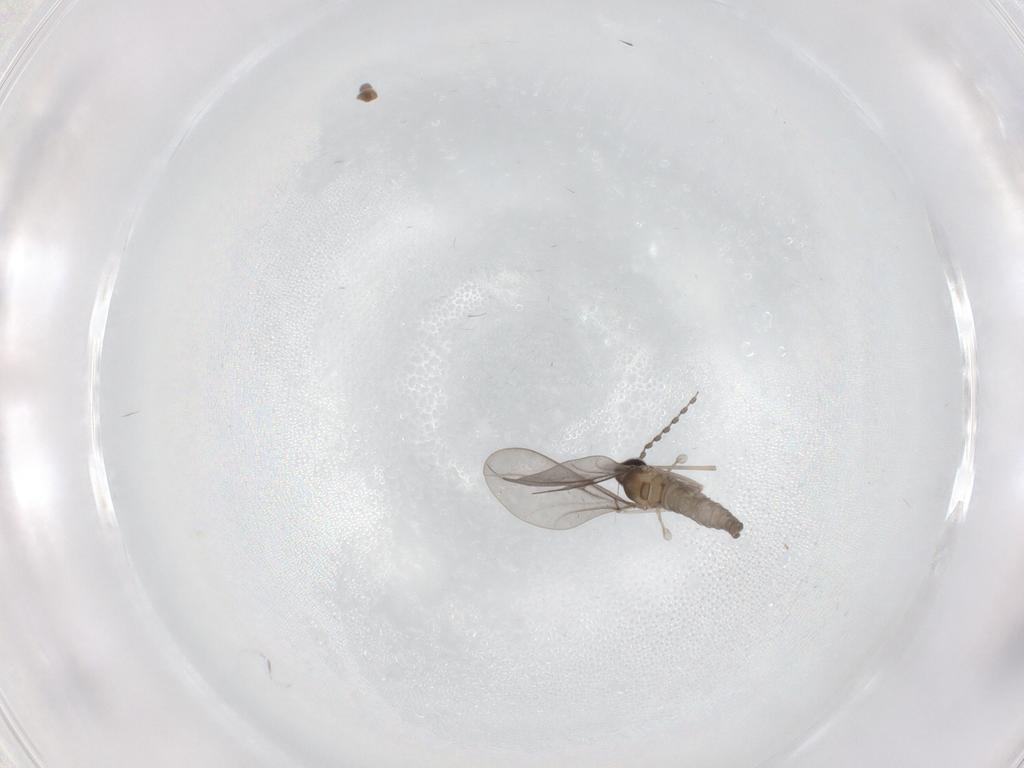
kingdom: Animalia
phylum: Arthropoda
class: Insecta
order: Diptera
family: Cecidomyiidae
